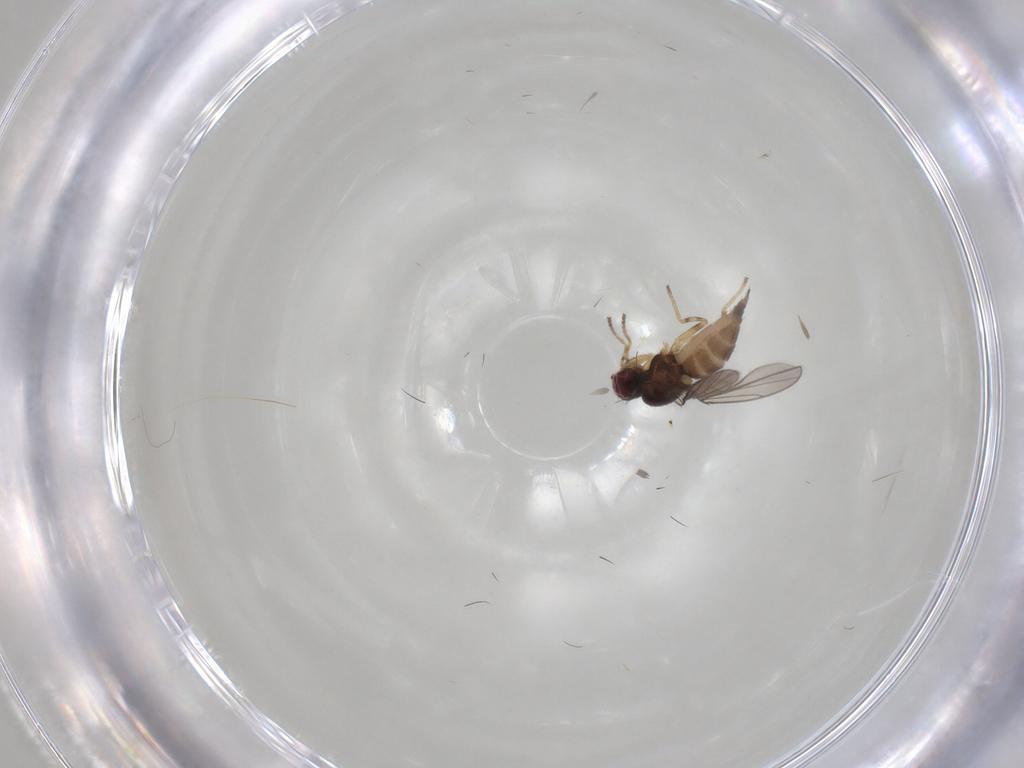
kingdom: Animalia
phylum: Arthropoda
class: Insecta
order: Diptera
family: Chloropidae
